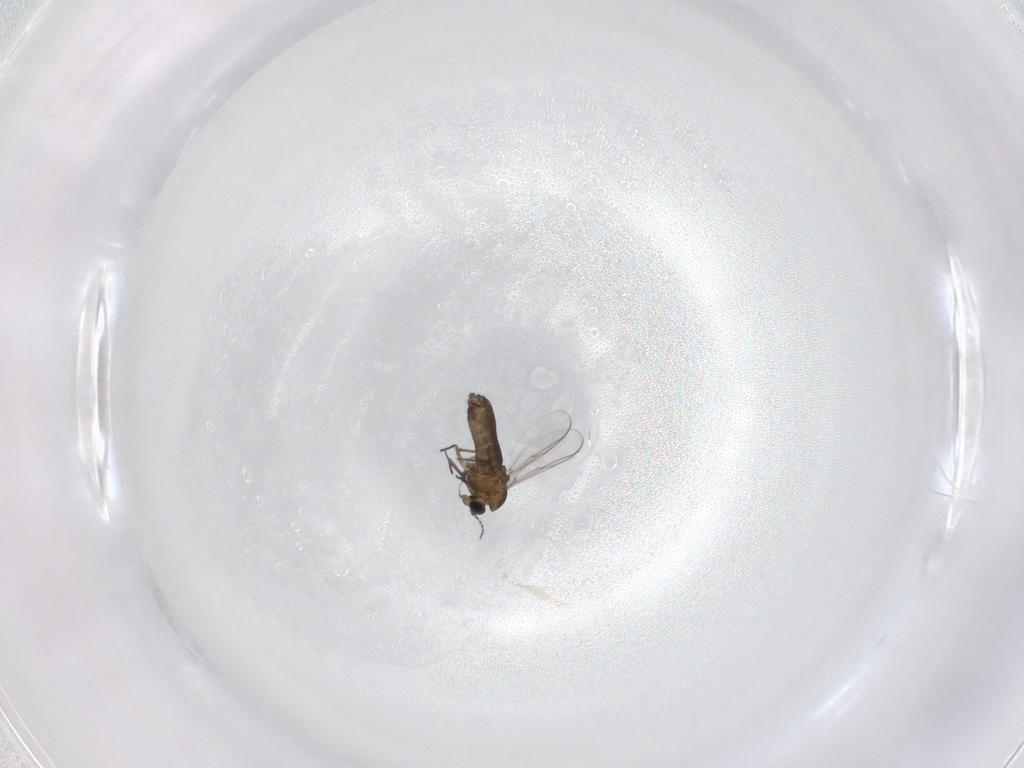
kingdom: Animalia
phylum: Arthropoda
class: Insecta
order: Diptera
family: Chironomidae
